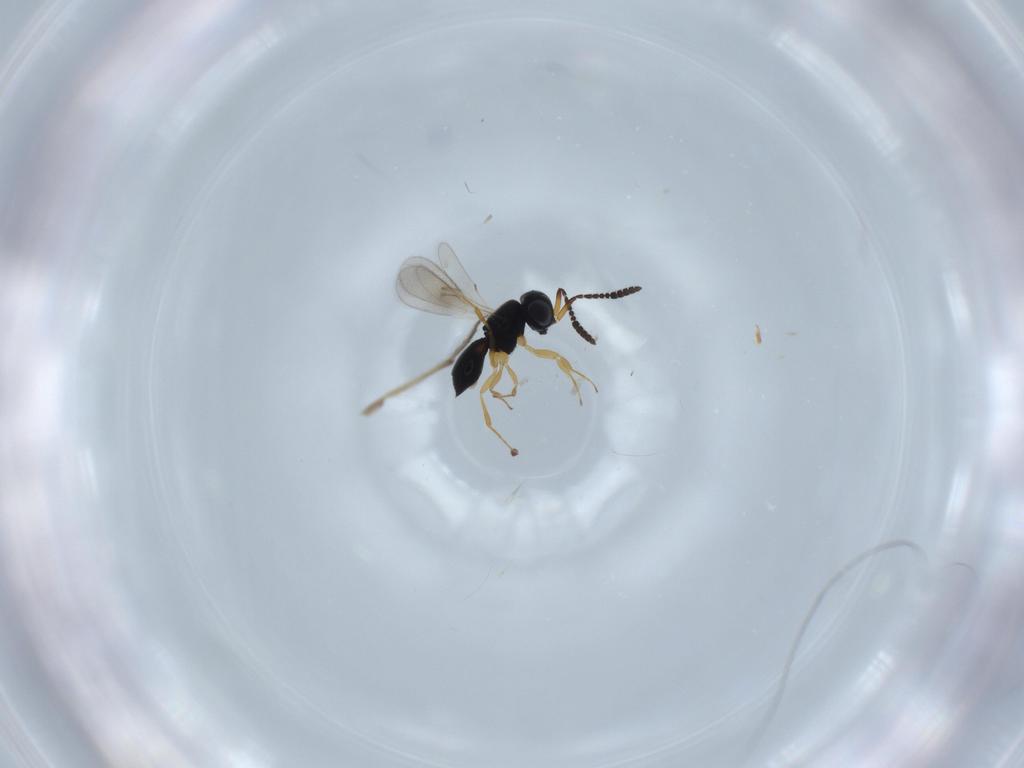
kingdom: Animalia
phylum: Arthropoda
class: Insecta
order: Hymenoptera
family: Scelionidae
